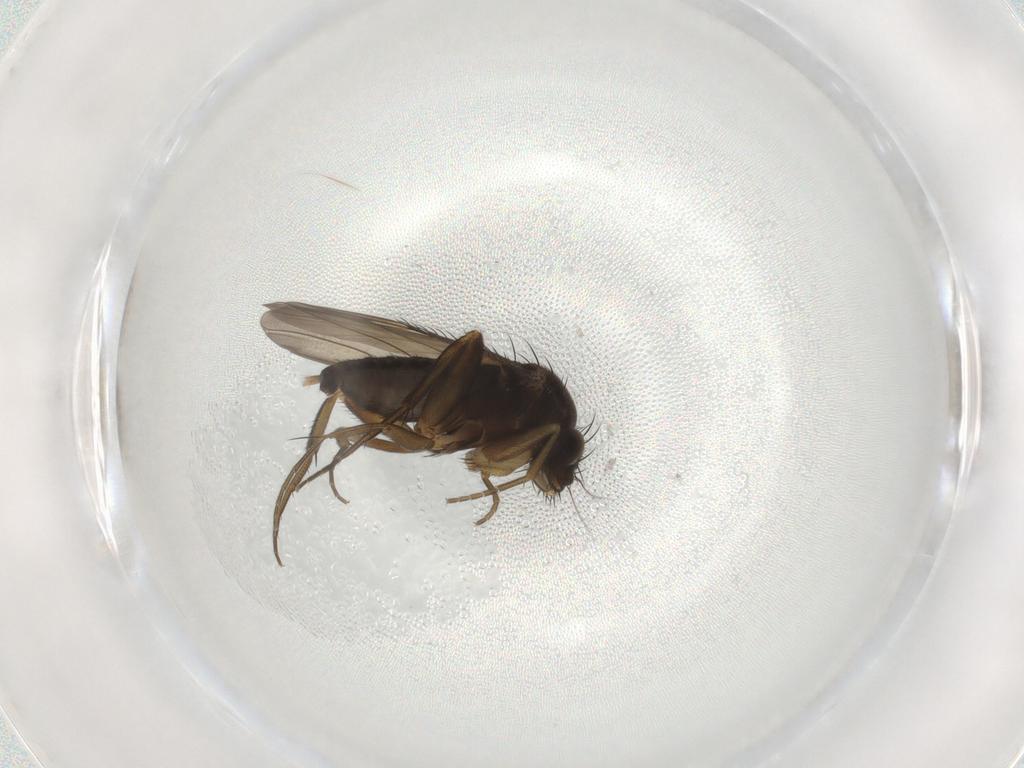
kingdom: Animalia
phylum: Arthropoda
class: Insecta
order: Diptera
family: Phoridae
